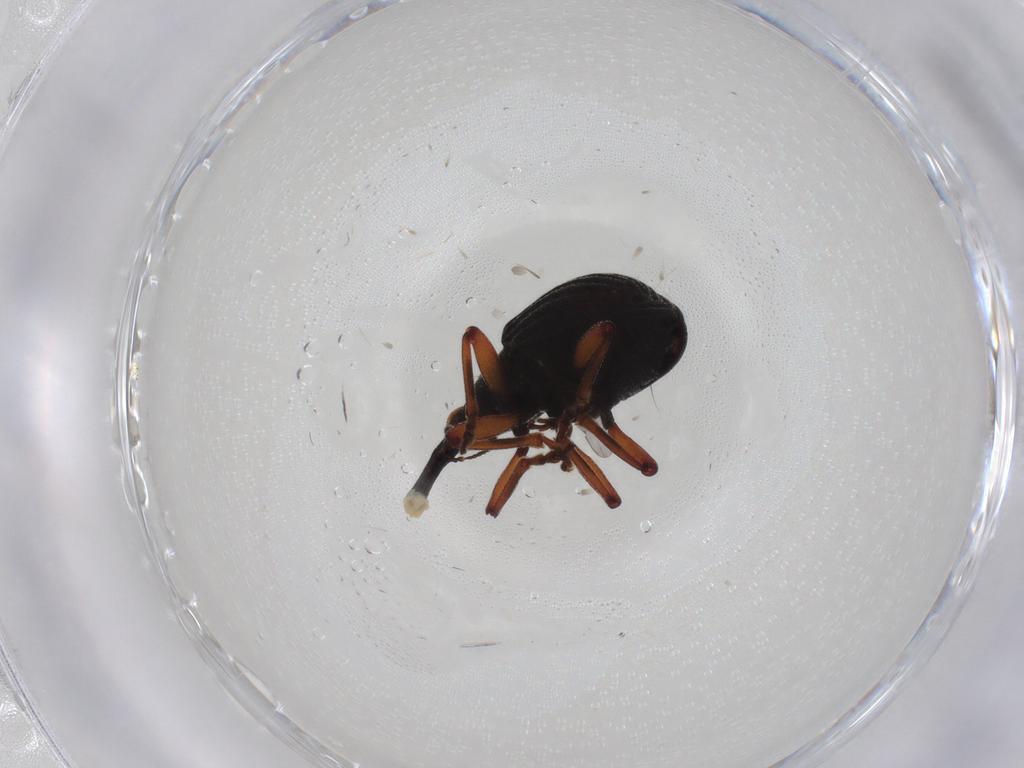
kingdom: Animalia
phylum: Arthropoda
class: Insecta
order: Coleoptera
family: Brentidae
